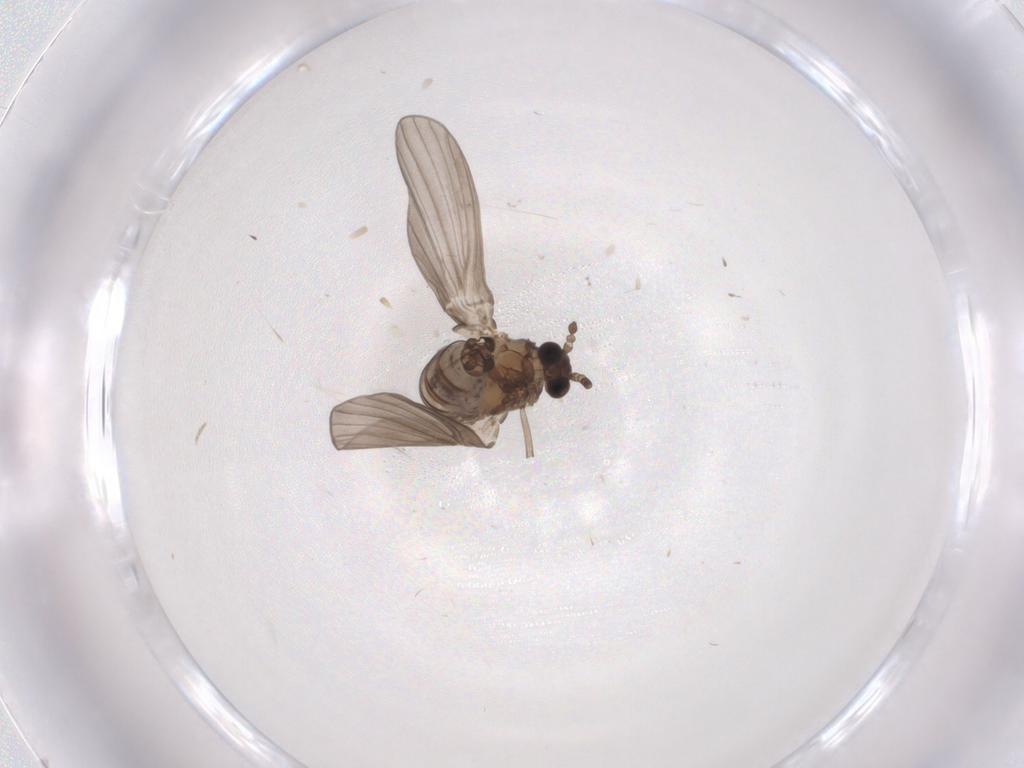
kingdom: Animalia
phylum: Arthropoda
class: Insecta
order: Diptera
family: Psychodidae
